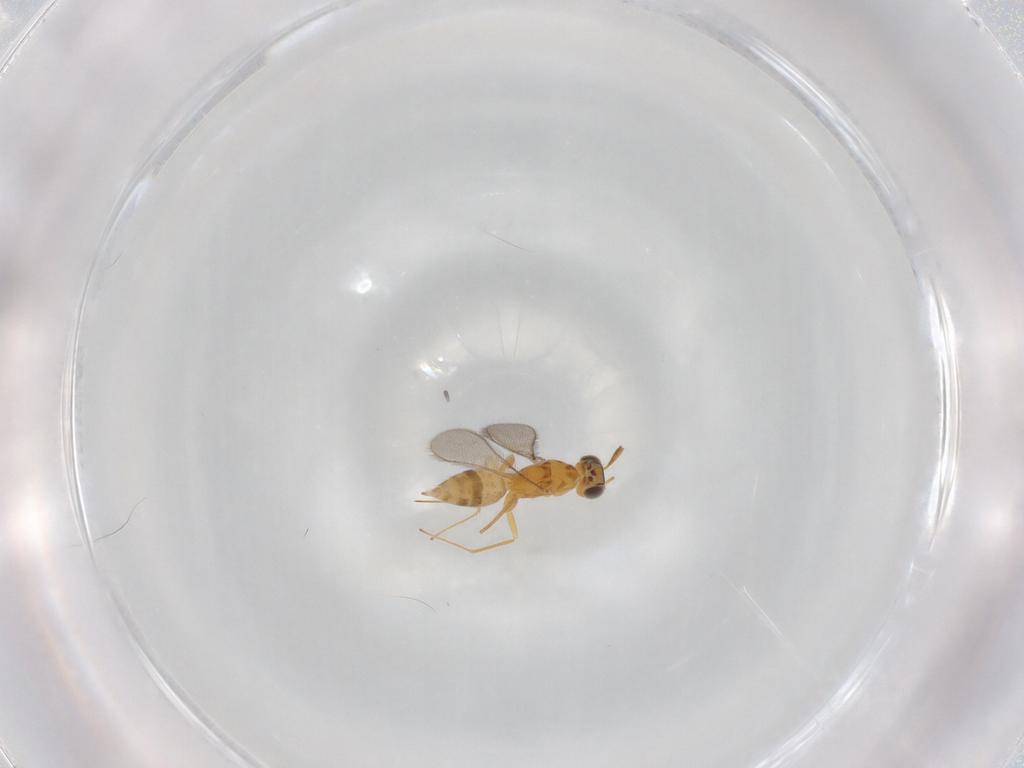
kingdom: Animalia
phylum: Arthropoda
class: Insecta
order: Hymenoptera
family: Mymaridae
